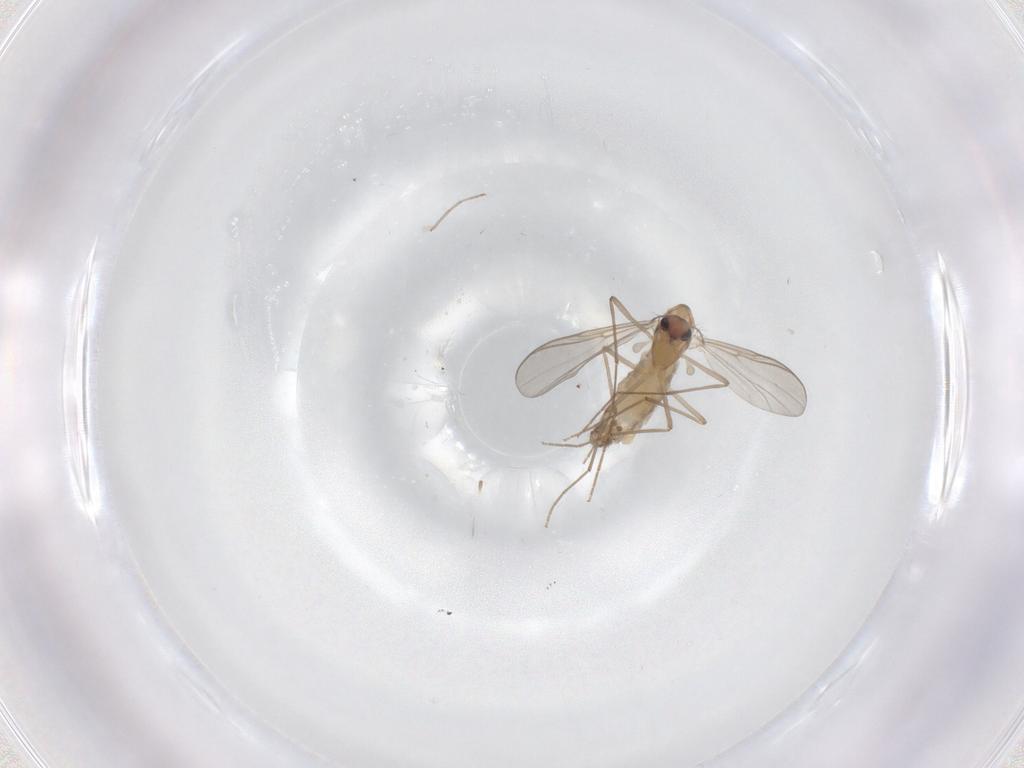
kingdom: Animalia
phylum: Arthropoda
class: Insecta
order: Diptera
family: Chironomidae
